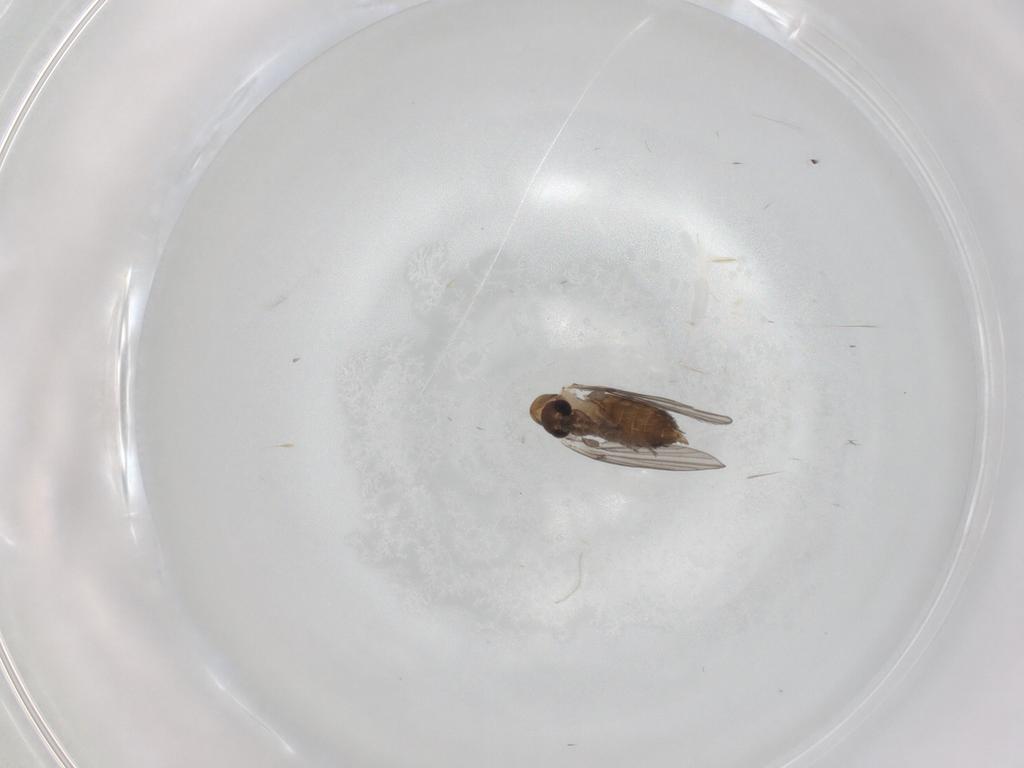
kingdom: Animalia
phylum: Arthropoda
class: Insecta
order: Diptera
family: Psychodidae
